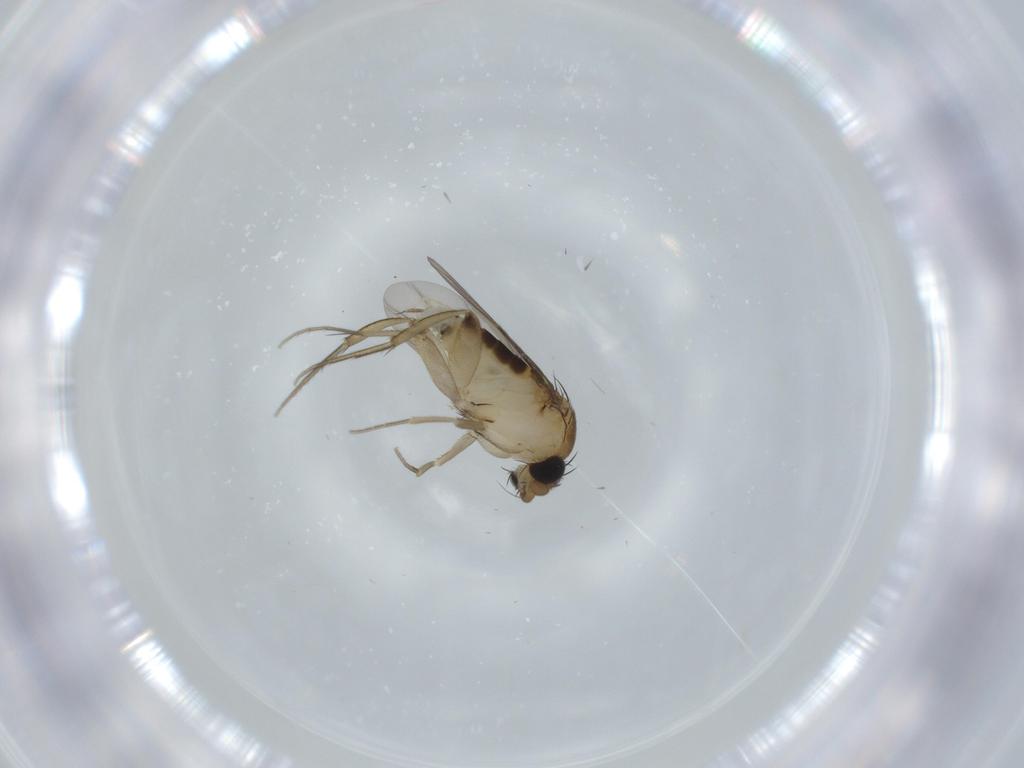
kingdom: Animalia
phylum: Arthropoda
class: Insecta
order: Diptera
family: Phoridae
